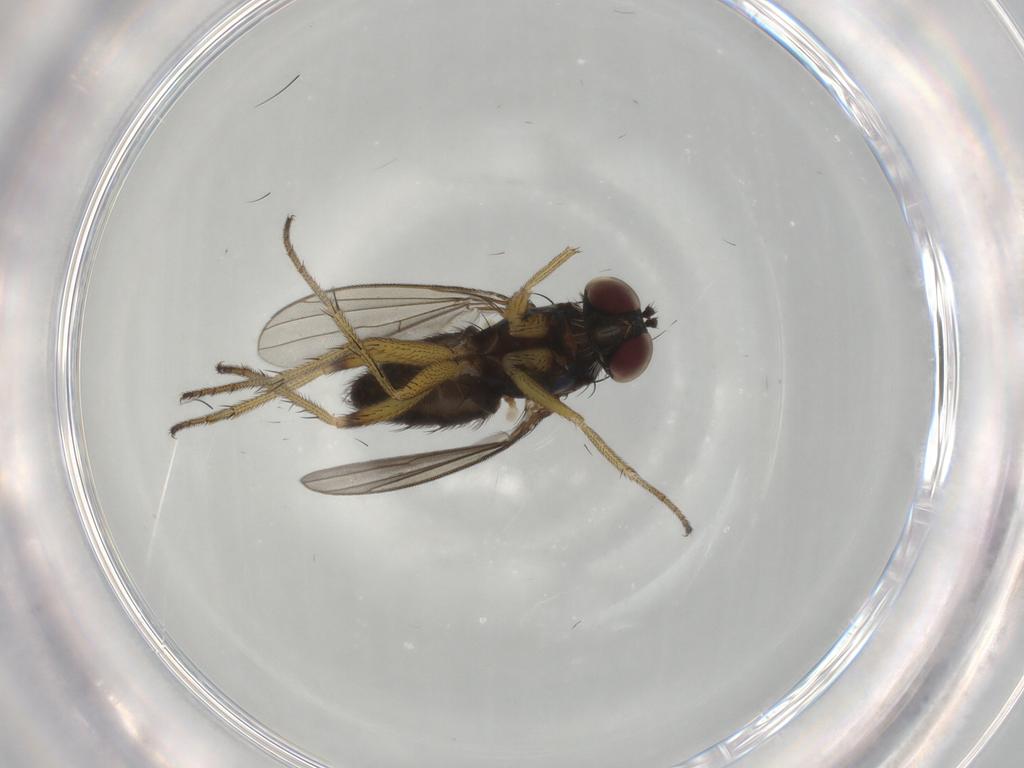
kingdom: Animalia
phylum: Arthropoda
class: Insecta
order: Diptera
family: Dolichopodidae
